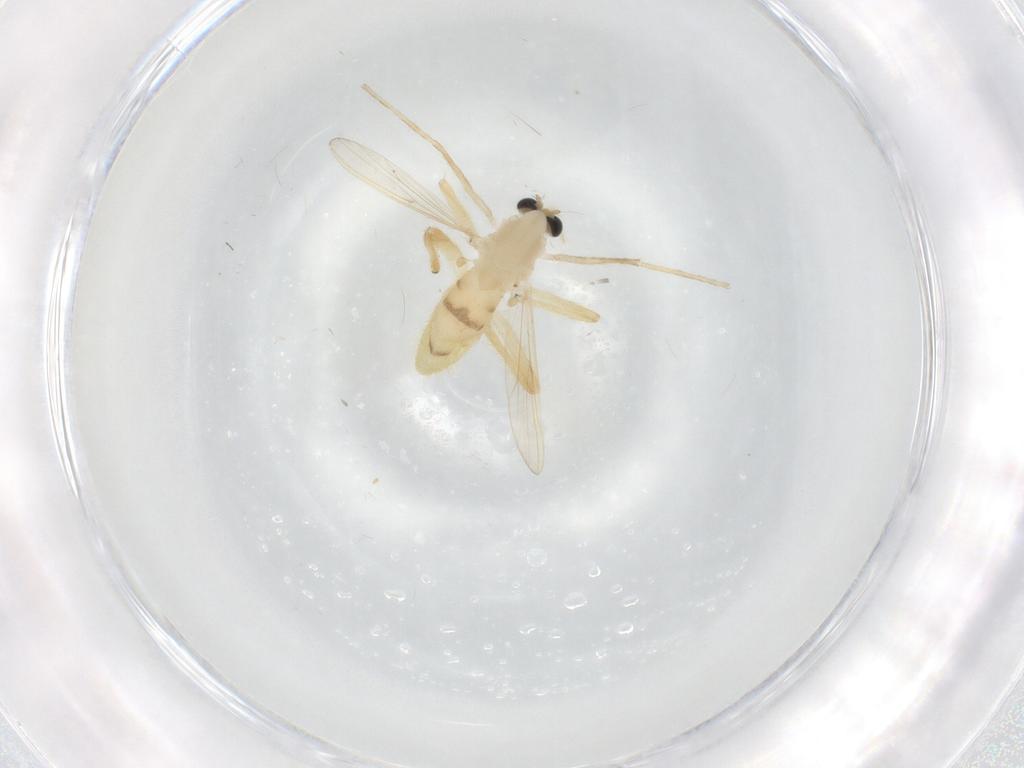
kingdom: Animalia
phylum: Arthropoda
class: Insecta
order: Diptera
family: Chironomidae
